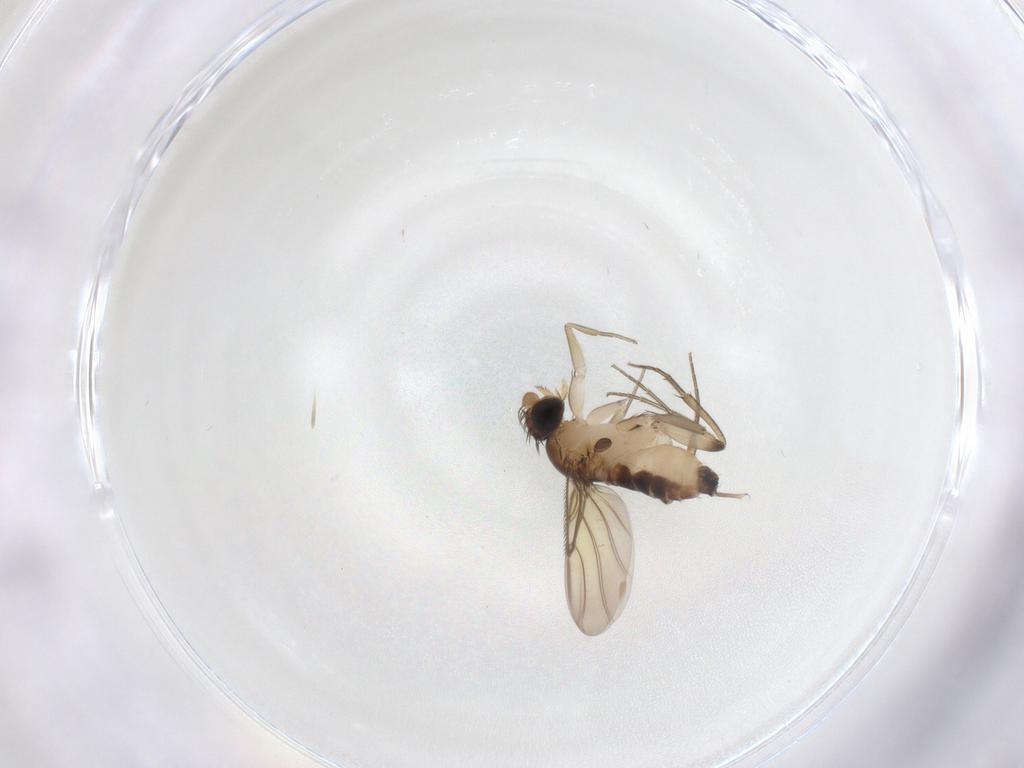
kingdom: Animalia
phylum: Arthropoda
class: Insecta
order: Diptera
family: Phoridae
